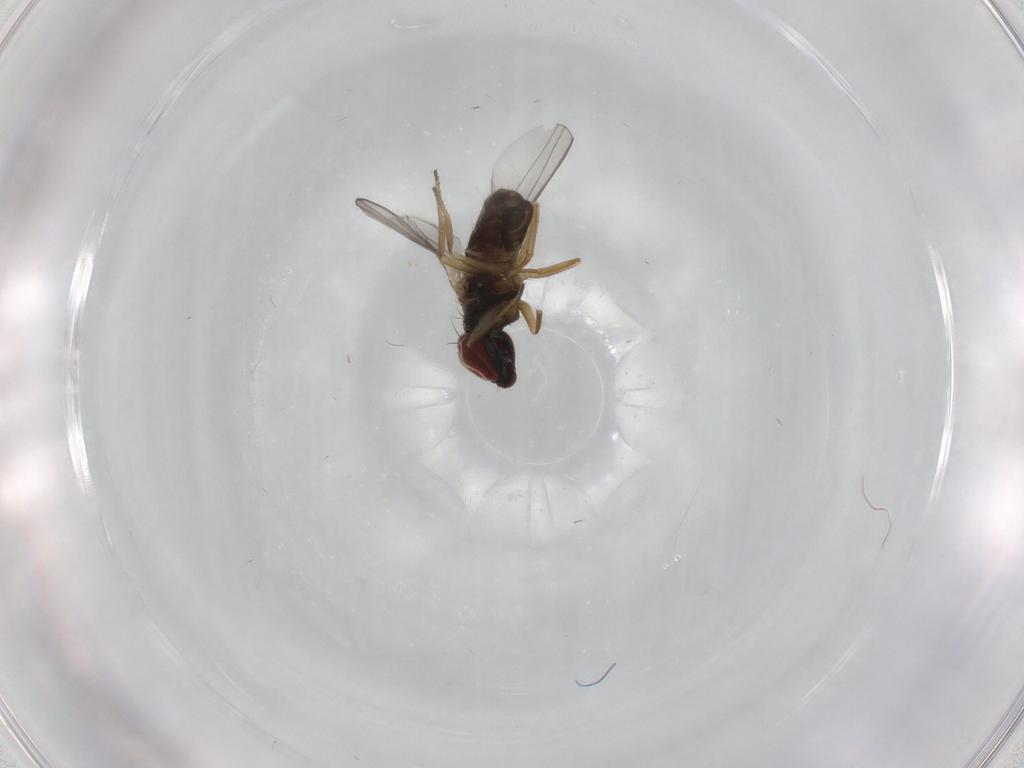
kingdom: Animalia
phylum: Arthropoda
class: Insecta
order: Diptera
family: Dolichopodidae
